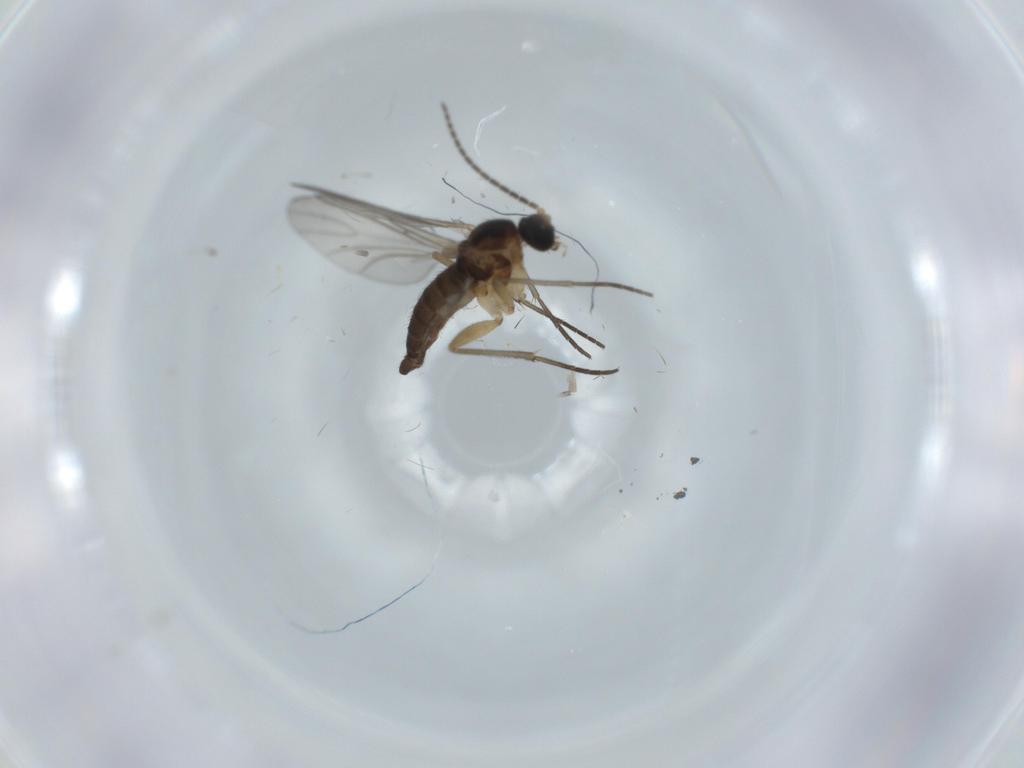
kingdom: Animalia
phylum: Arthropoda
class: Insecta
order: Diptera
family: Sciaridae
